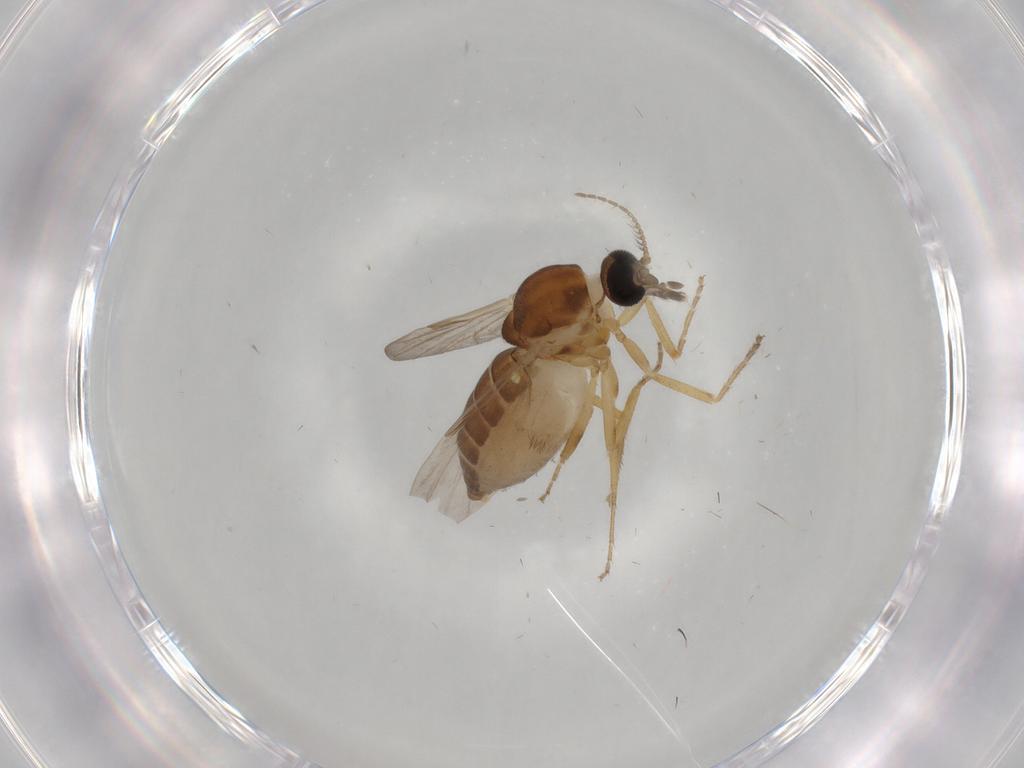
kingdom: Animalia
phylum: Arthropoda
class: Insecta
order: Diptera
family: Ceratopogonidae
